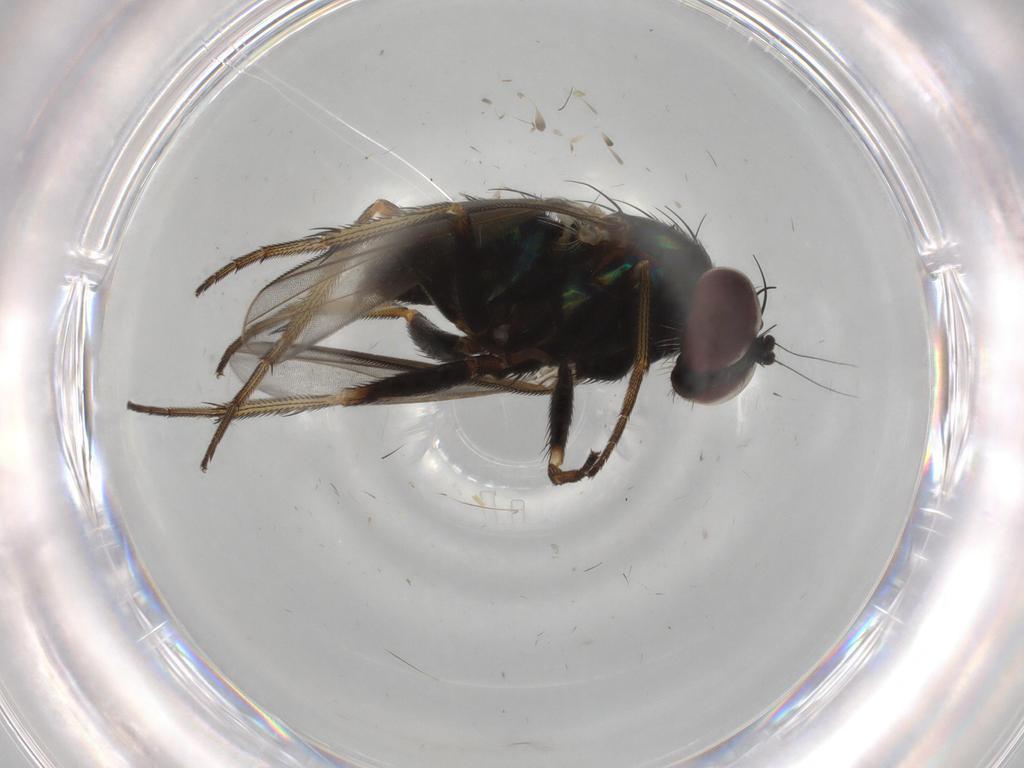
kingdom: Animalia
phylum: Arthropoda
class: Insecta
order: Diptera
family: Dolichopodidae
